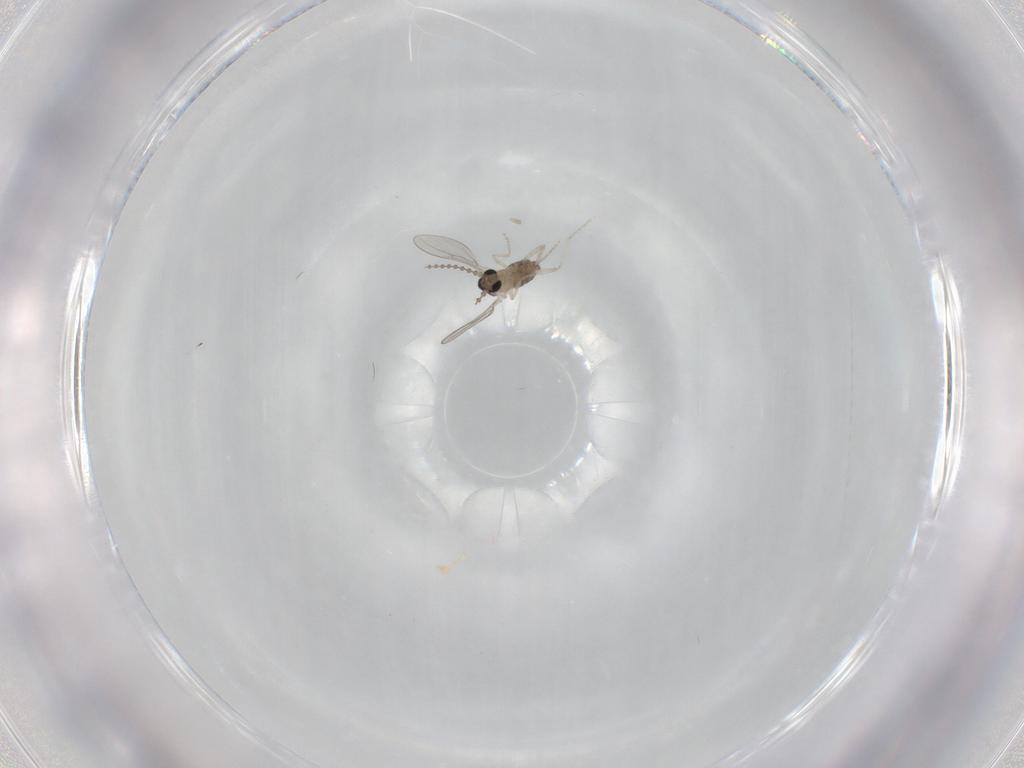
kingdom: Animalia
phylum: Arthropoda
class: Insecta
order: Diptera
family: Cecidomyiidae
